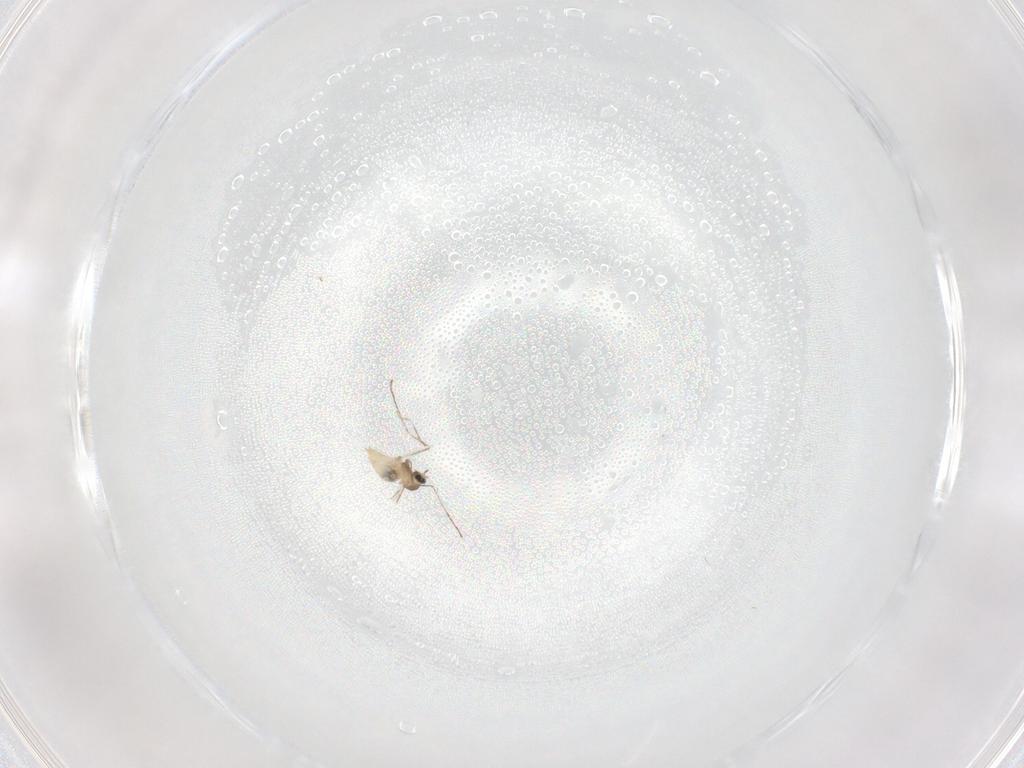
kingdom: Animalia
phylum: Arthropoda
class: Insecta
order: Diptera
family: Cecidomyiidae
